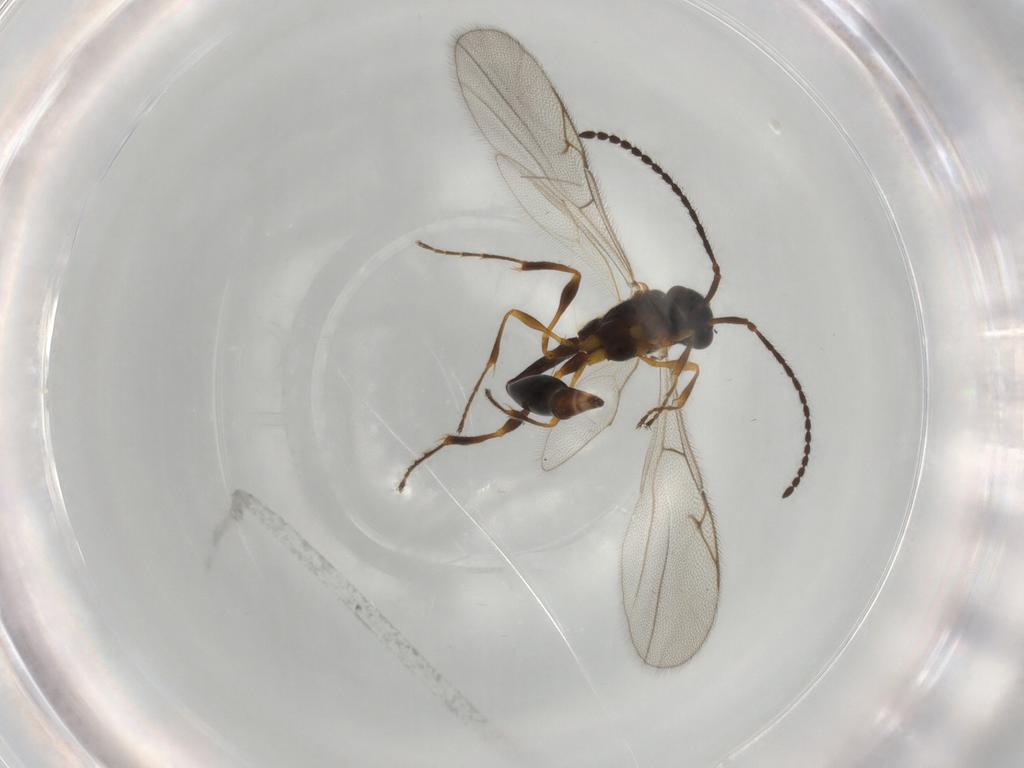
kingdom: Animalia
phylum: Arthropoda
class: Insecta
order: Hymenoptera
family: Diapriidae
